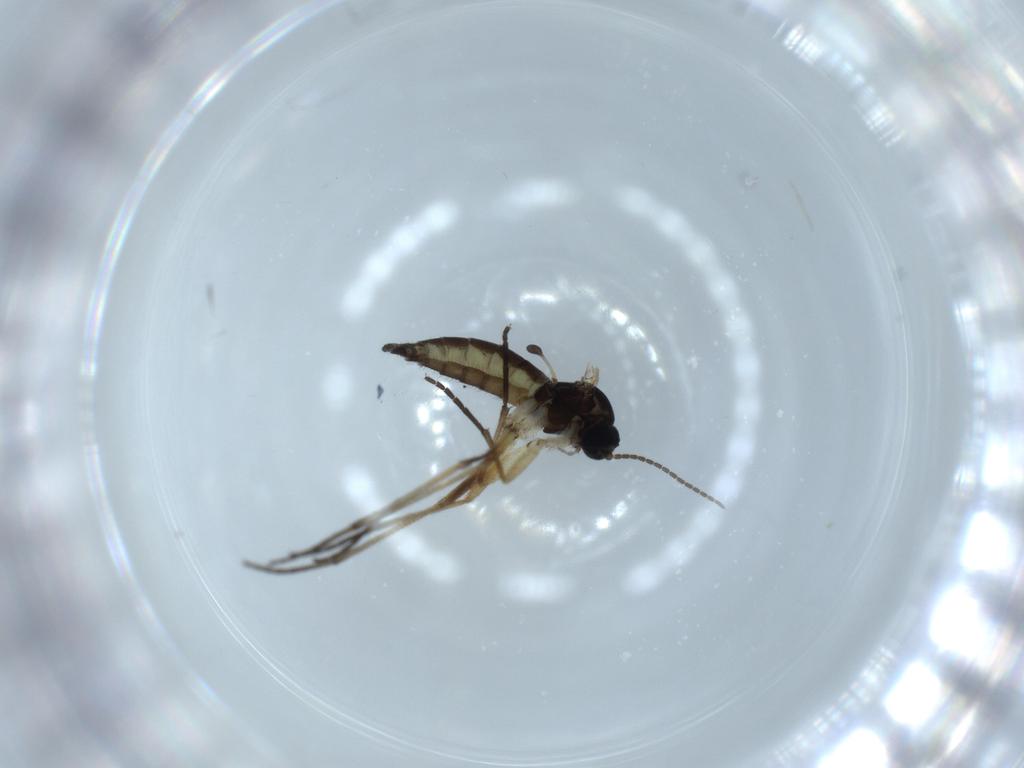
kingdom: Animalia
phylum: Arthropoda
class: Insecta
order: Diptera
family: Sciaridae
